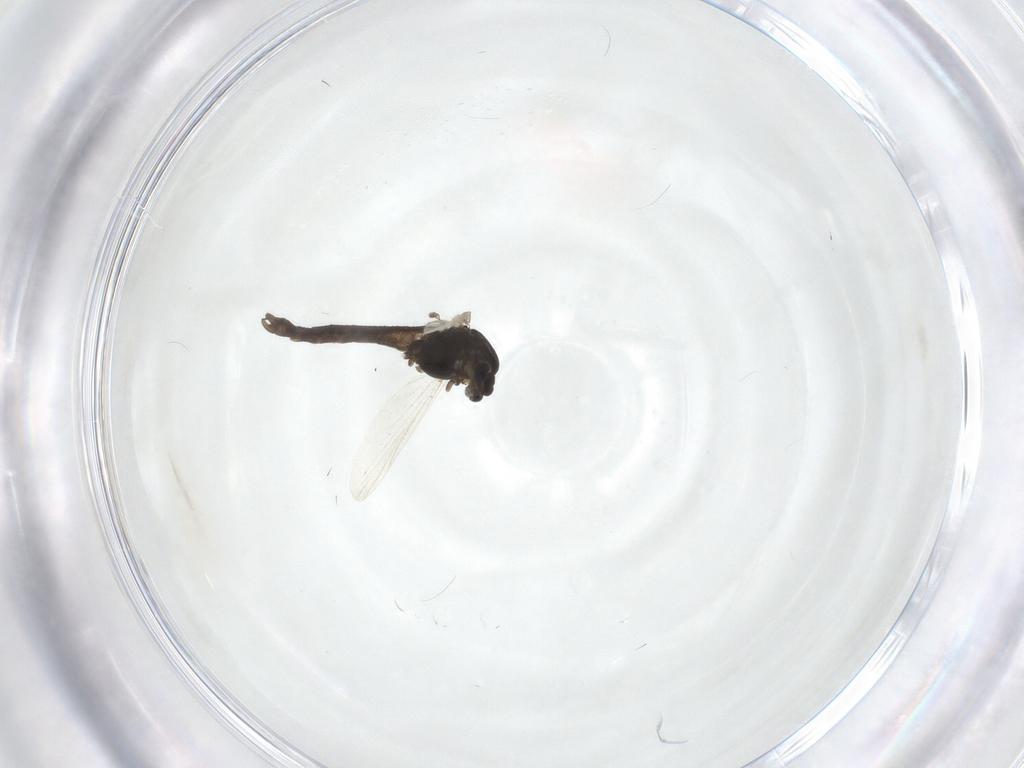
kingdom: Animalia
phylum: Arthropoda
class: Insecta
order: Diptera
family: Chironomidae
